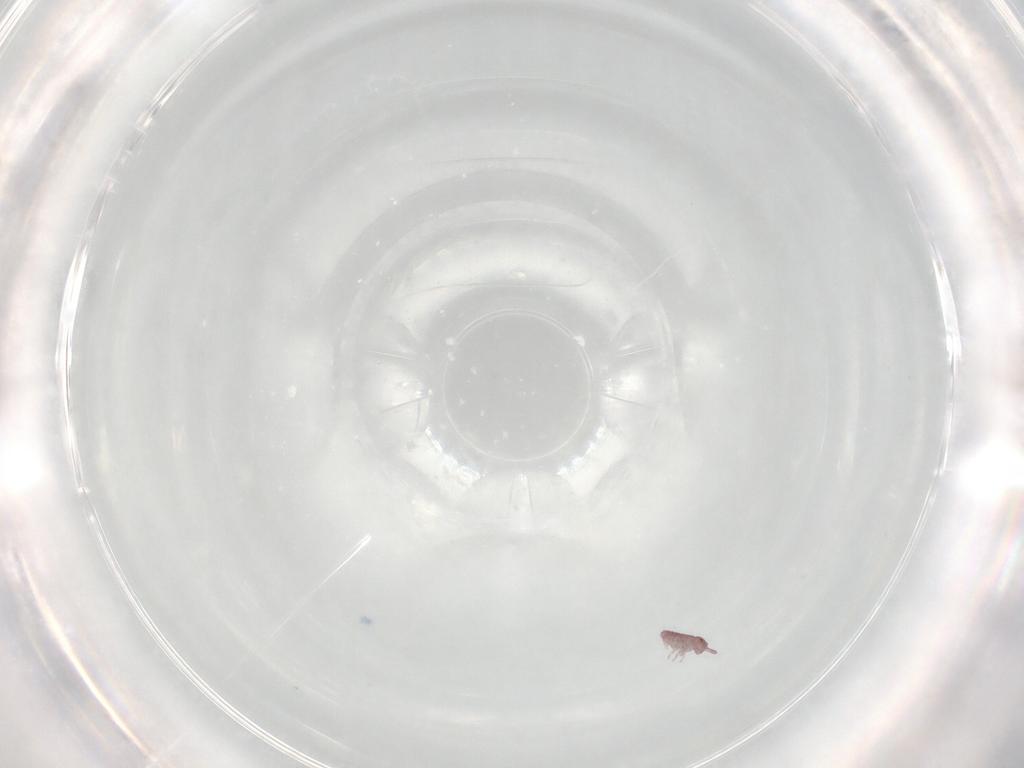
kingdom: Animalia
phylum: Arthropoda
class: Collembola
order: Poduromorpha
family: Hypogastruridae
